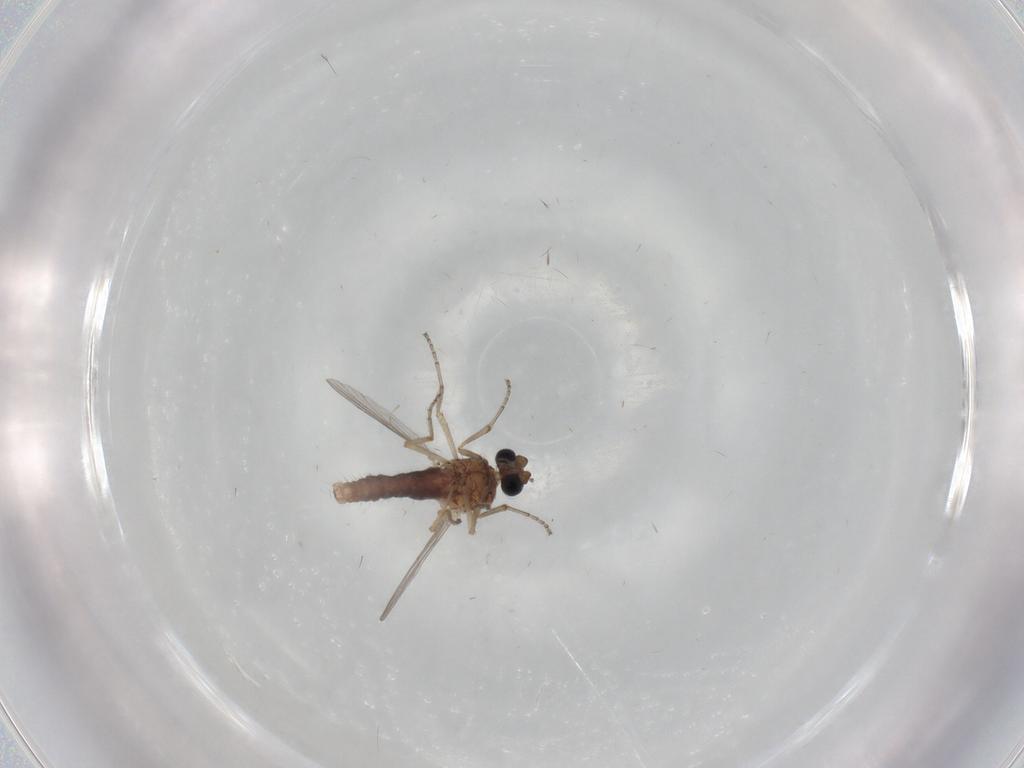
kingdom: Animalia
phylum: Arthropoda
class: Insecta
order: Diptera
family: Ceratopogonidae
